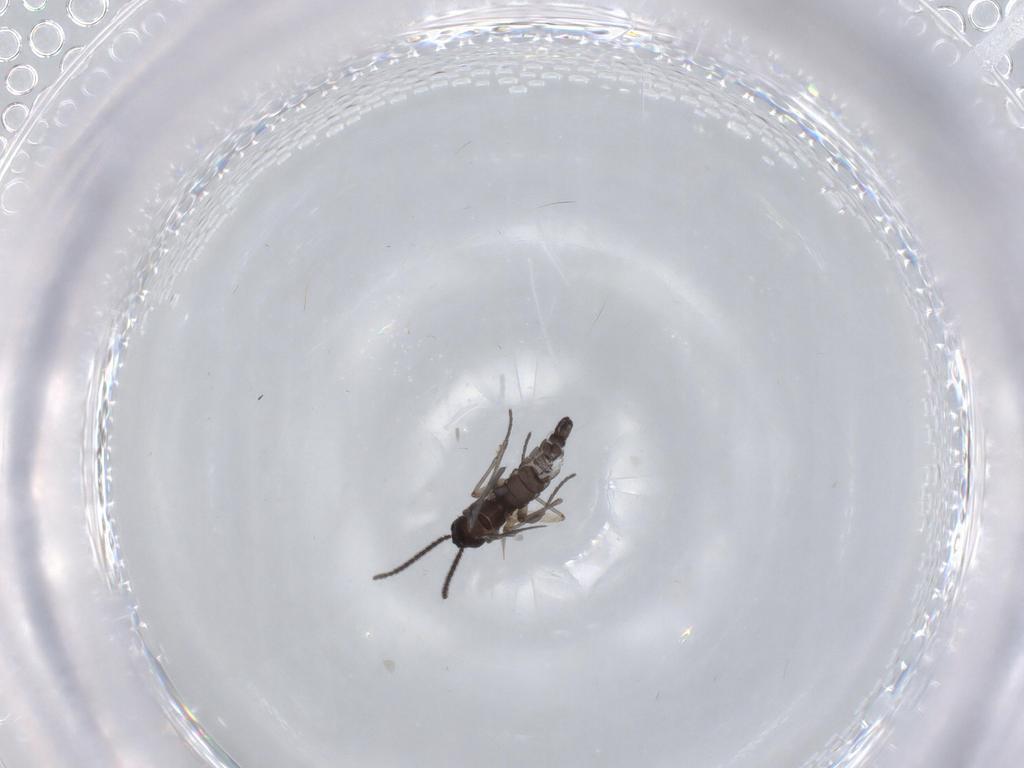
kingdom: Animalia
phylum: Arthropoda
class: Insecta
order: Diptera
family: Sciaridae
